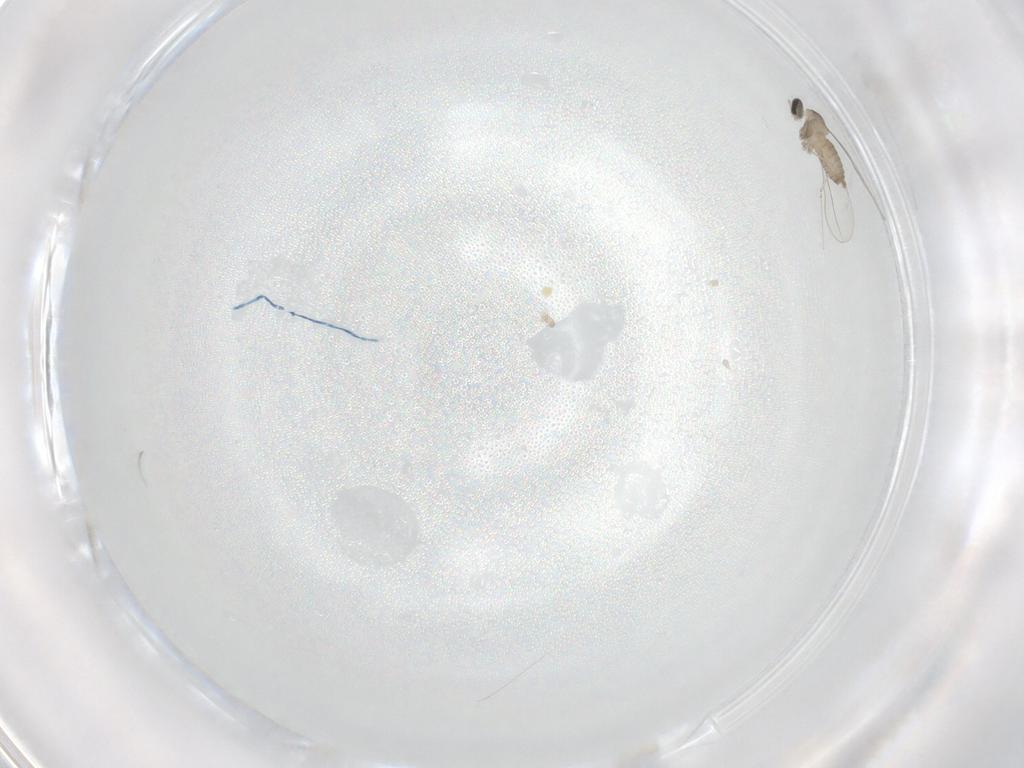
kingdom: Animalia
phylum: Arthropoda
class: Insecta
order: Diptera
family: Cecidomyiidae
